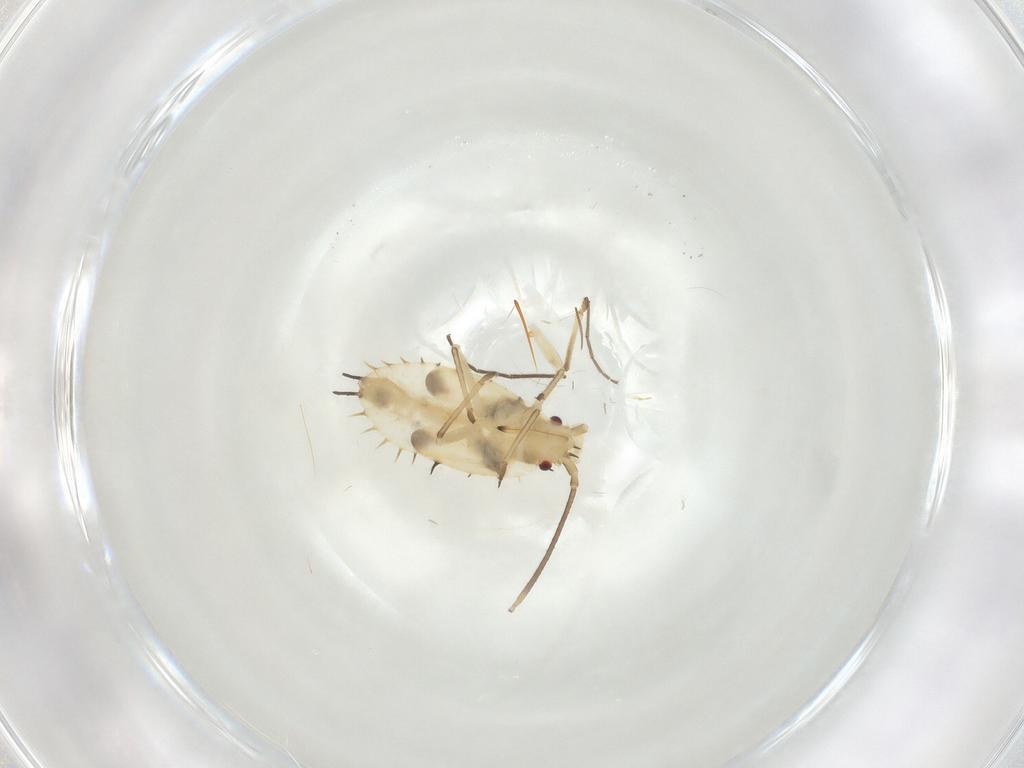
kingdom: Animalia
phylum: Arthropoda
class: Insecta
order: Hemiptera
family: Tingidae
